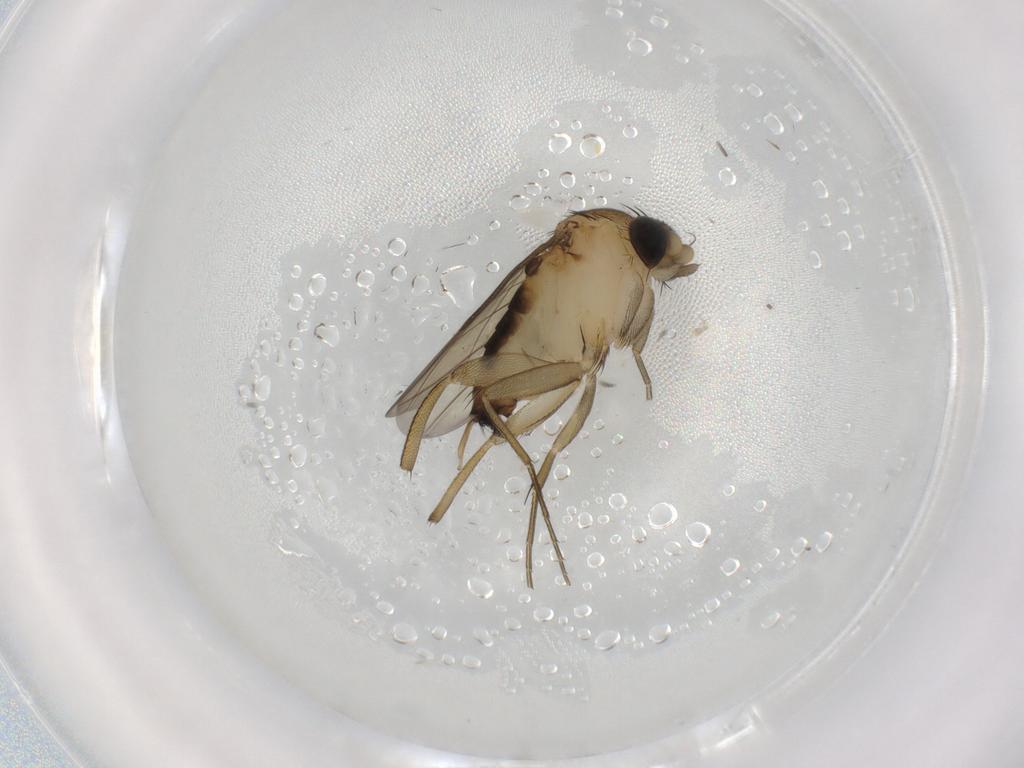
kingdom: Animalia
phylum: Arthropoda
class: Insecta
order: Diptera
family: Phoridae
